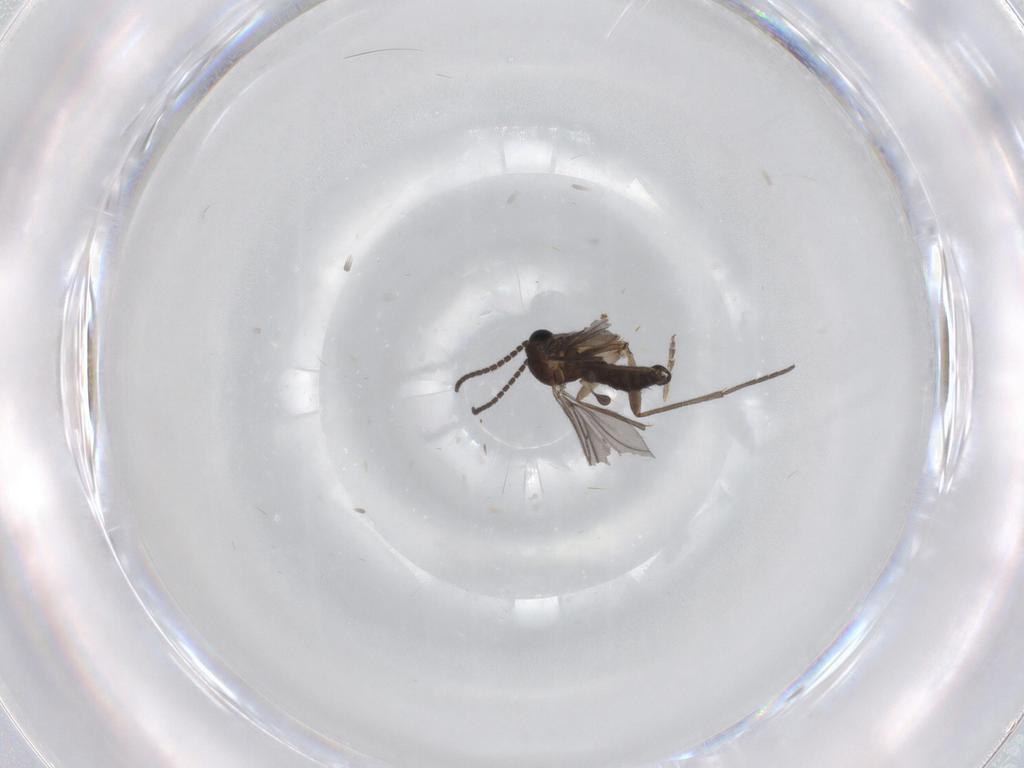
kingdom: Animalia
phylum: Arthropoda
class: Insecta
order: Diptera
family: Sciaridae
